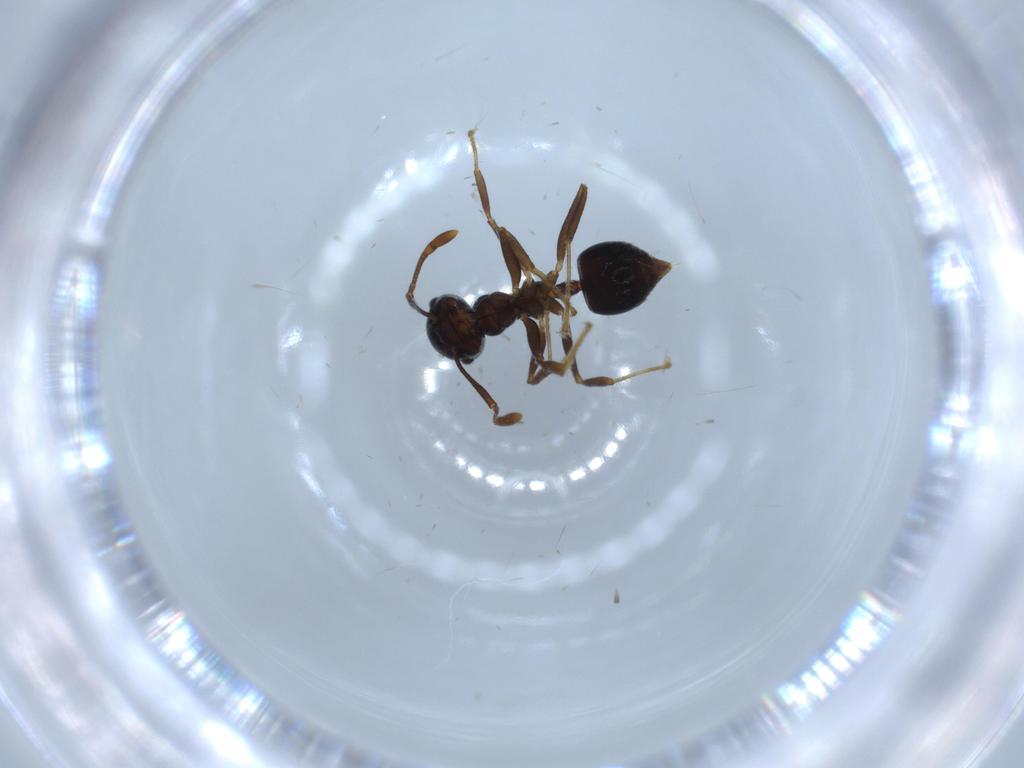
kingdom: Animalia
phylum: Arthropoda
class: Insecta
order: Hymenoptera
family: Formicidae
